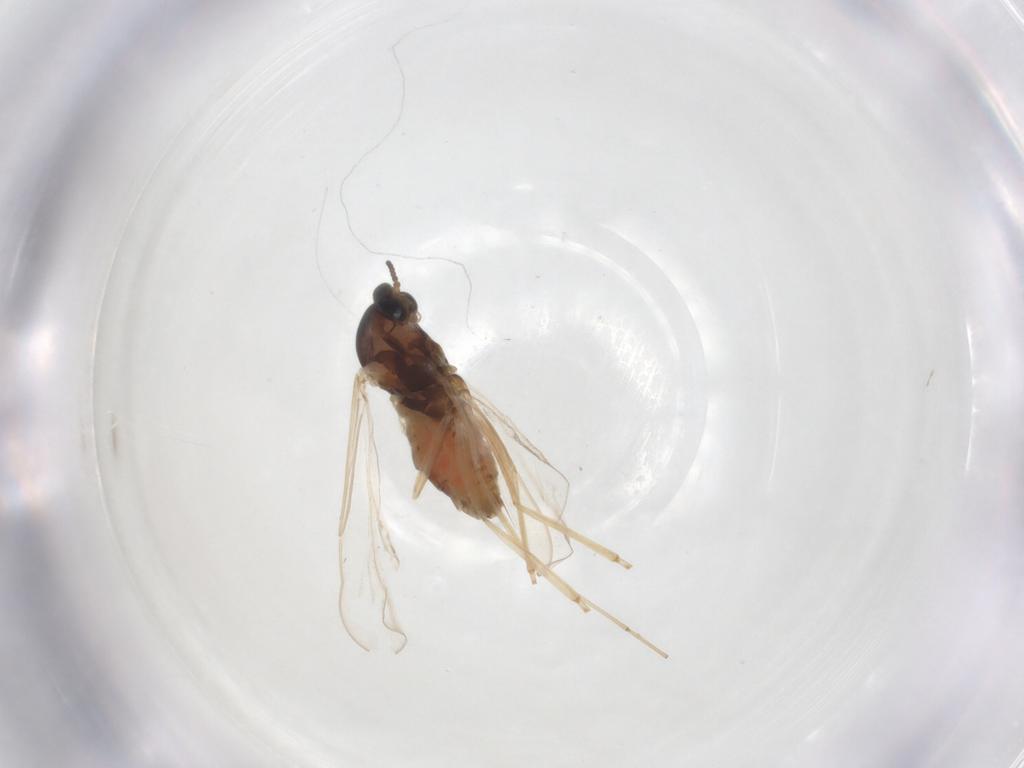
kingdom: Animalia
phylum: Arthropoda
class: Insecta
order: Diptera
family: Cecidomyiidae
